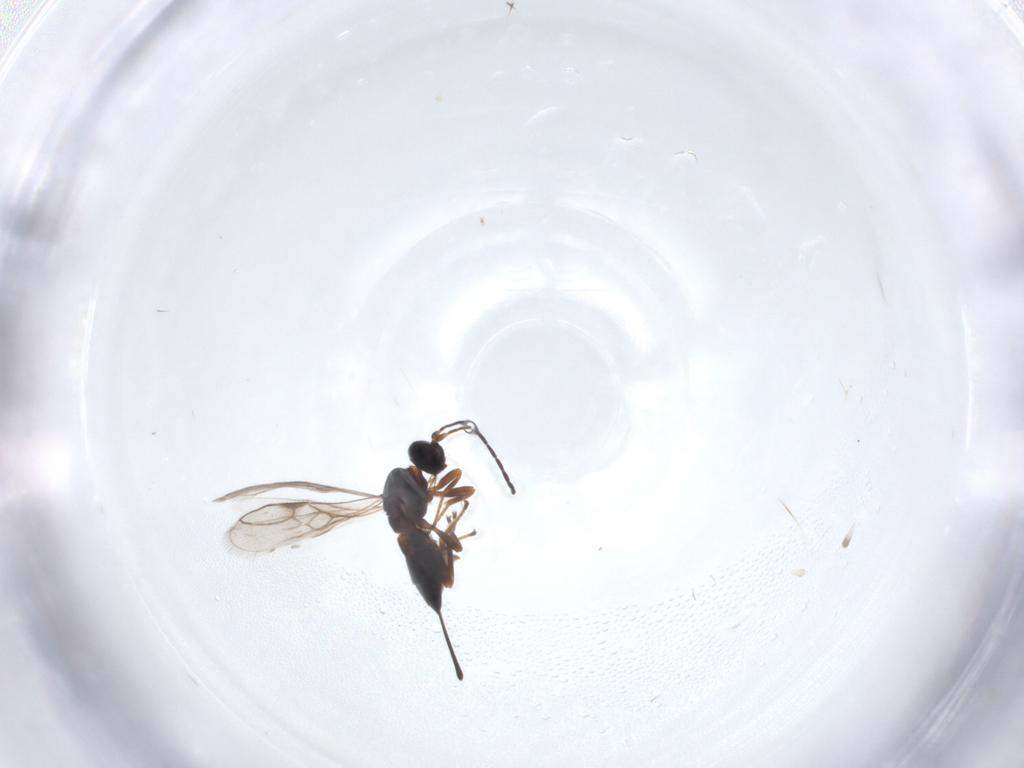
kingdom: Animalia
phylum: Arthropoda
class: Insecta
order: Hymenoptera
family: Braconidae
